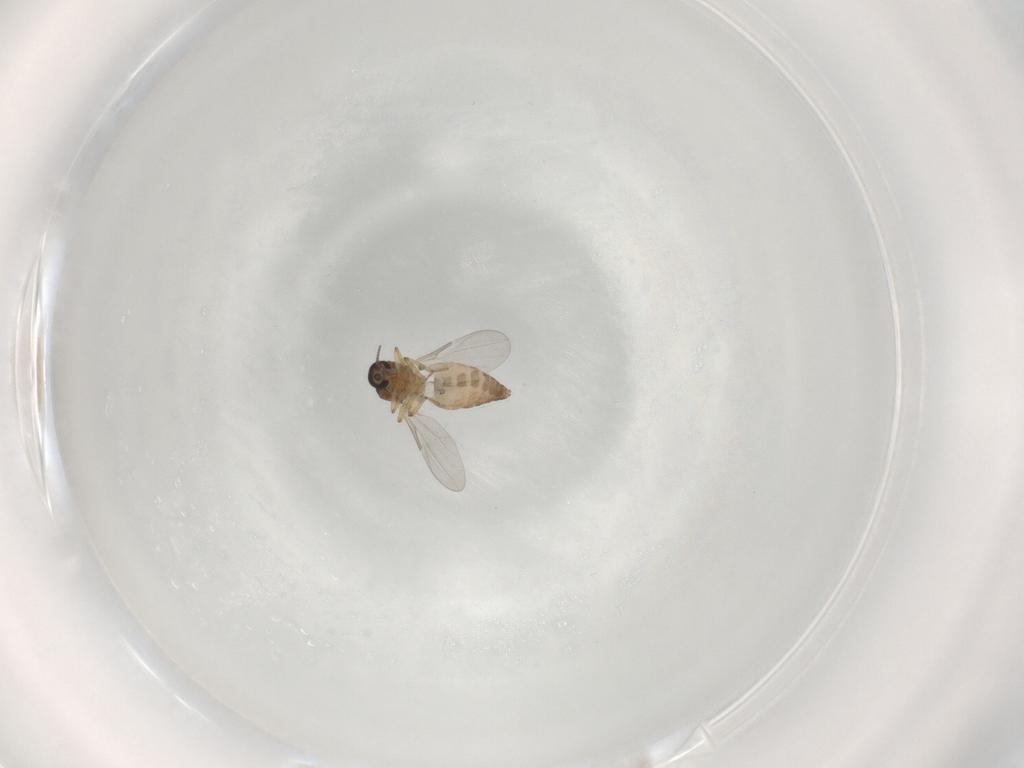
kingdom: Animalia
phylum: Arthropoda
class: Insecta
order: Diptera
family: Ceratopogonidae
